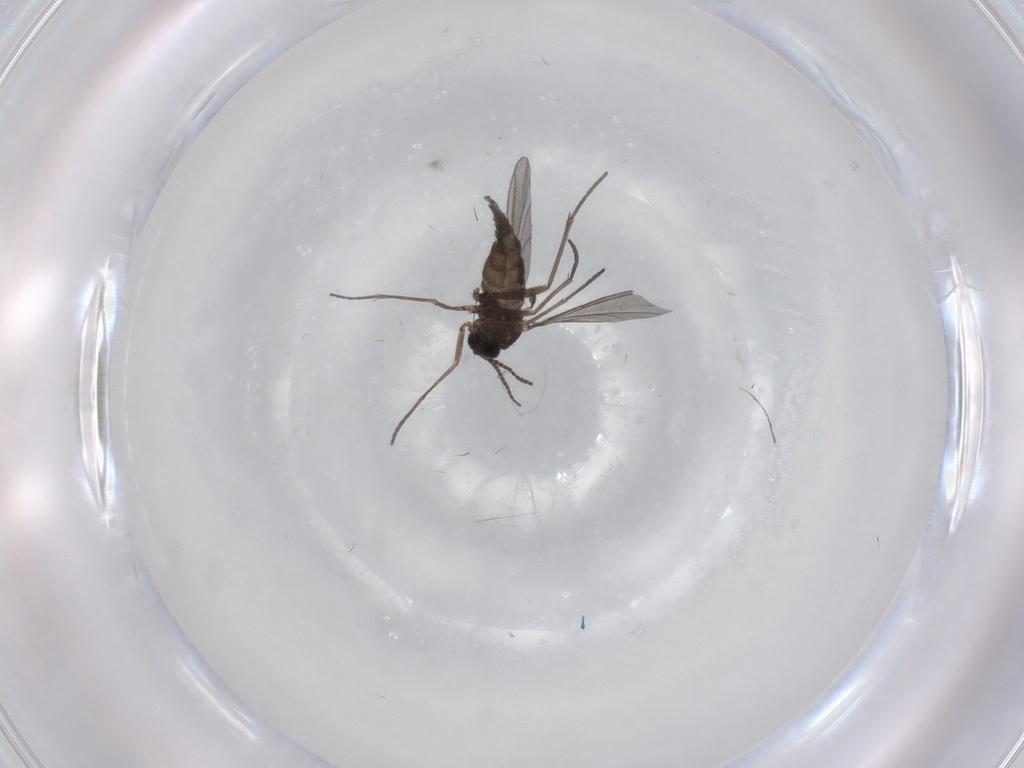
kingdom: Animalia
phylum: Arthropoda
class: Insecta
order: Diptera
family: Sciaridae
